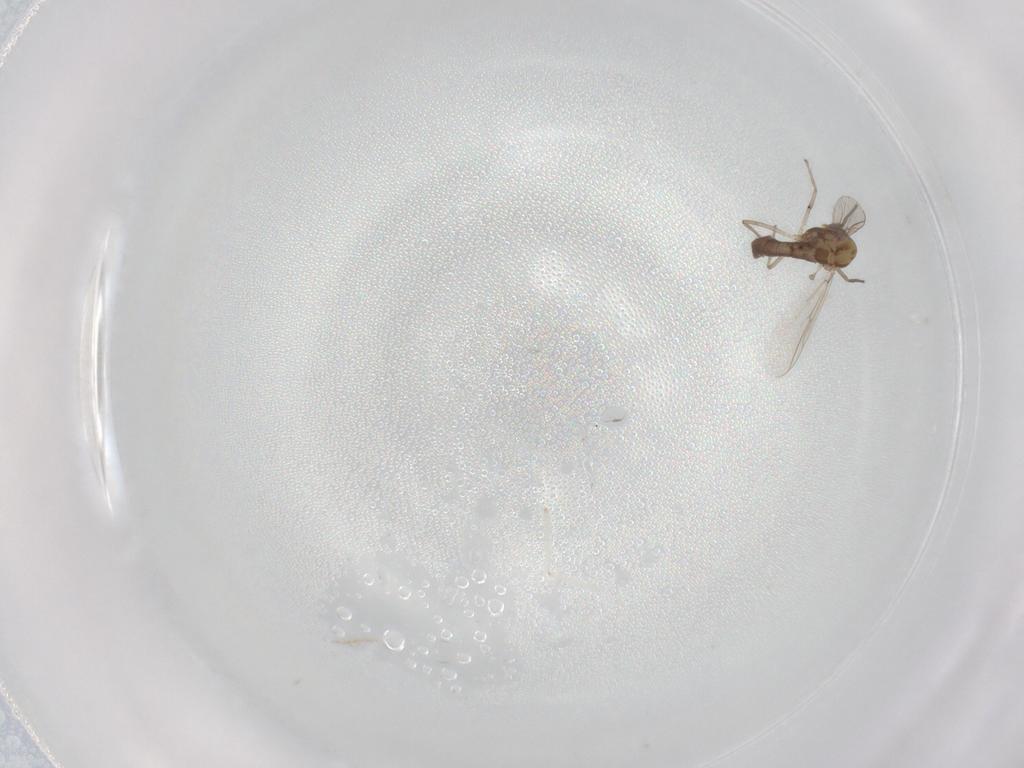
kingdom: Animalia
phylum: Arthropoda
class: Insecta
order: Diptera
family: Chironomidae
